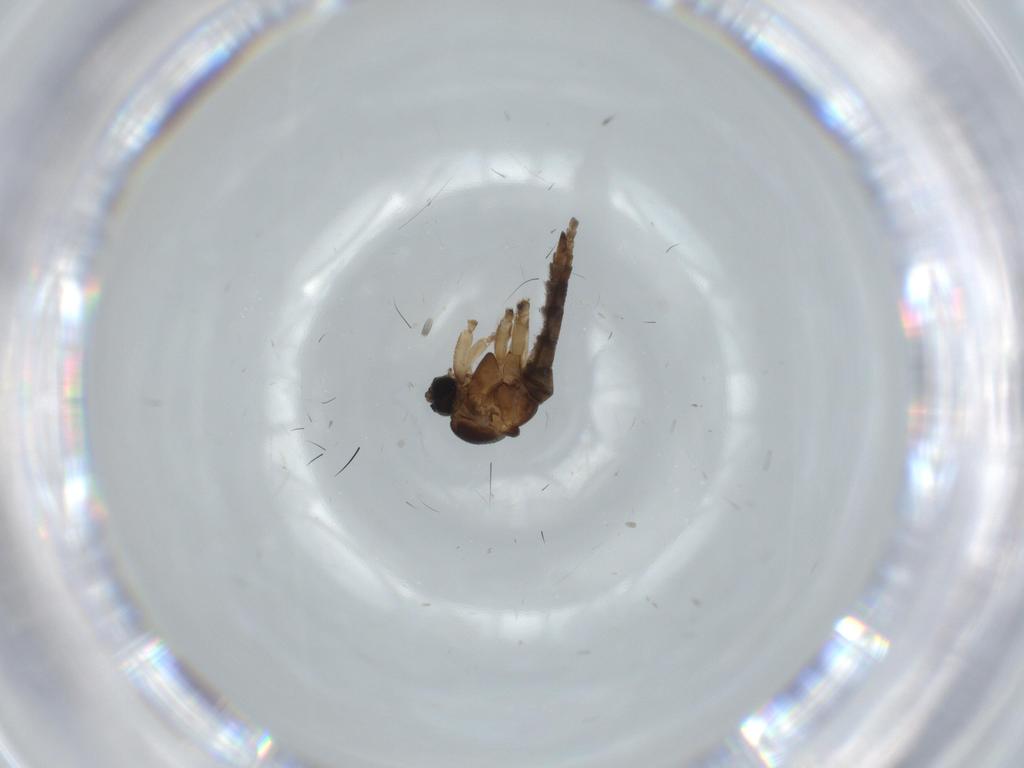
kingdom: Animalia
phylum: Arthropoda
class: Insecta
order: Diptera
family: Sciaridae
